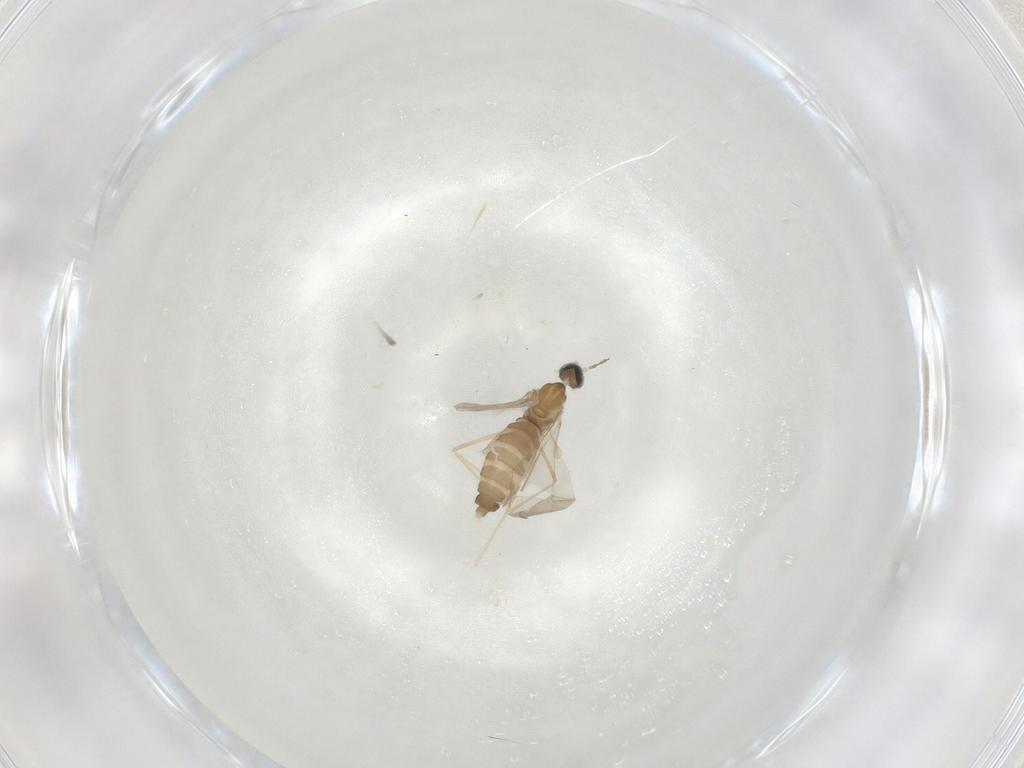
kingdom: Animalia
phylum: Arthropoda
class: Insecta
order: Diptera
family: Cecidomyiidae
